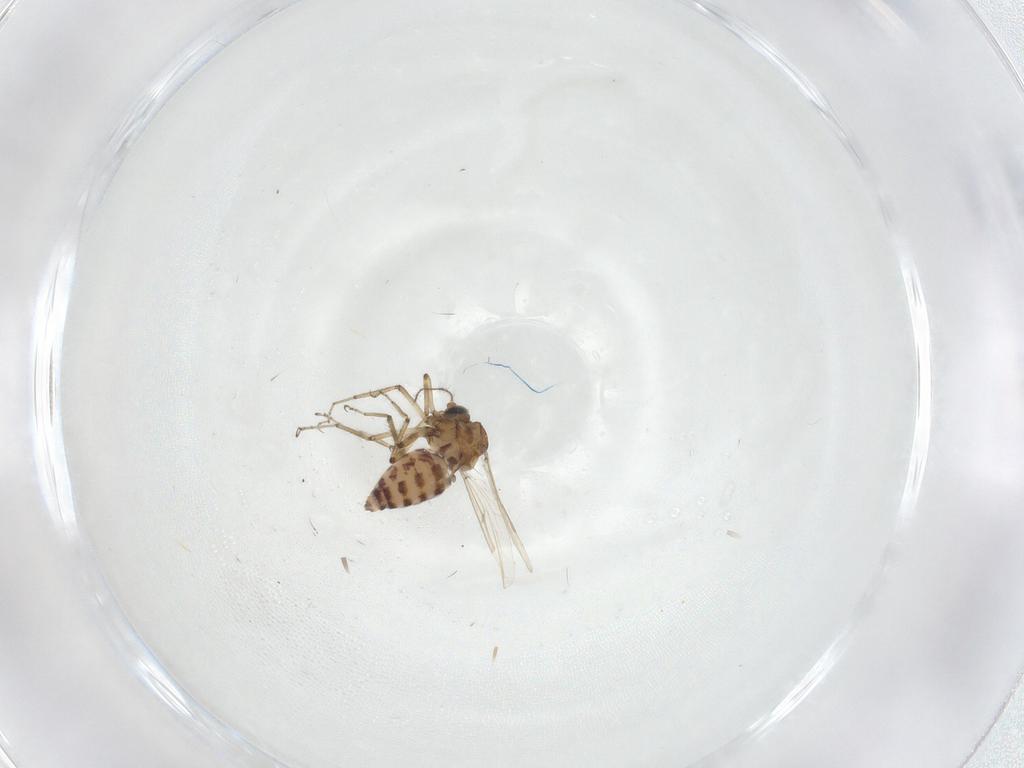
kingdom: Animalia
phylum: Arthropoda
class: Insecta
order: Diptera
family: Ceratopogonidae
